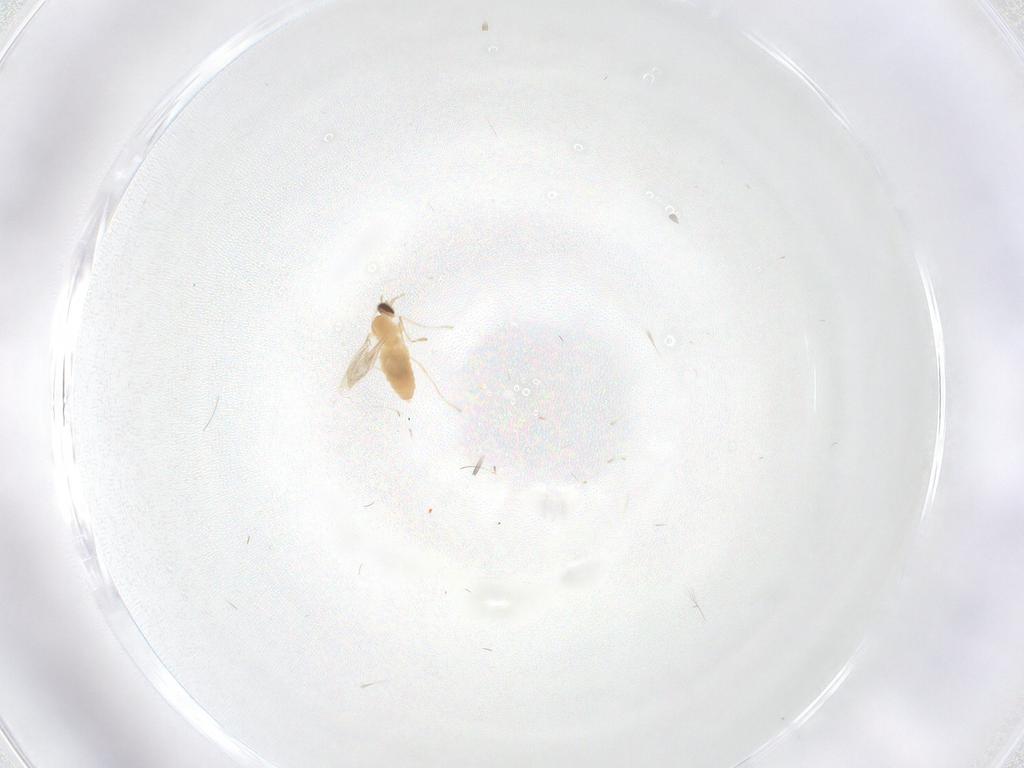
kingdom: Animalia
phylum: Arthropoda
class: Insecta
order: Diptera
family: Cecidomyiidae
